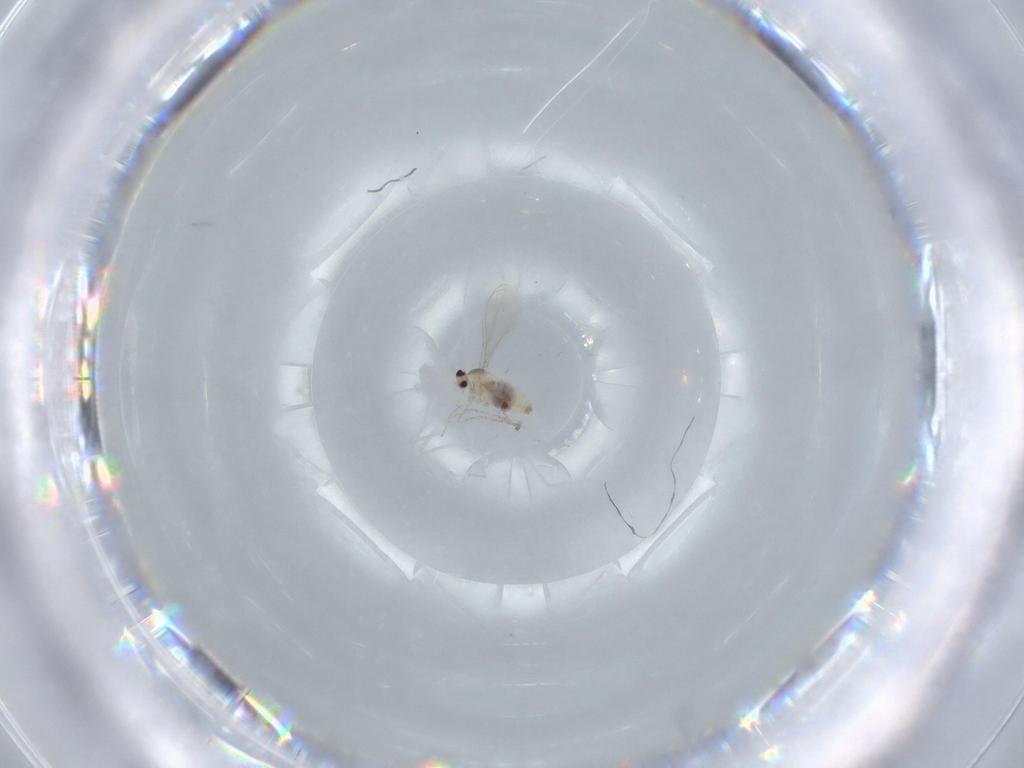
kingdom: Animalia
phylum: Arthropoda
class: Insecta
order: Diptera
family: Cecidomyiidae
